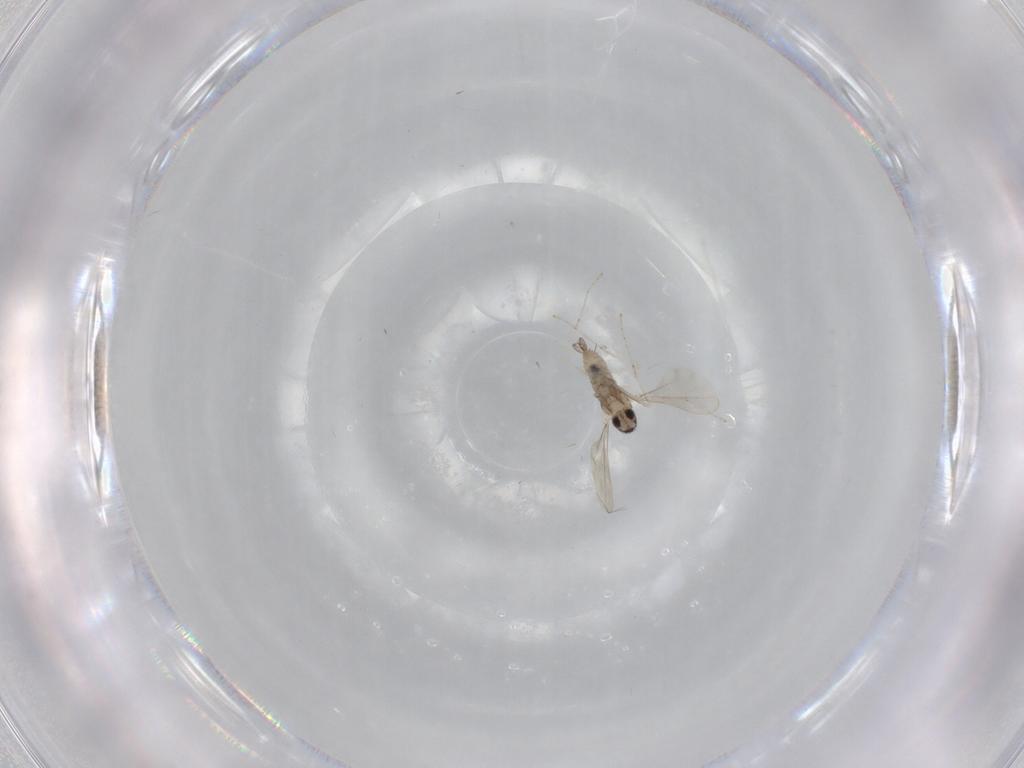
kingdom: Animalia
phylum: Arthropoda
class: Insecta
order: Diptera
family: Cecidomyiidae
